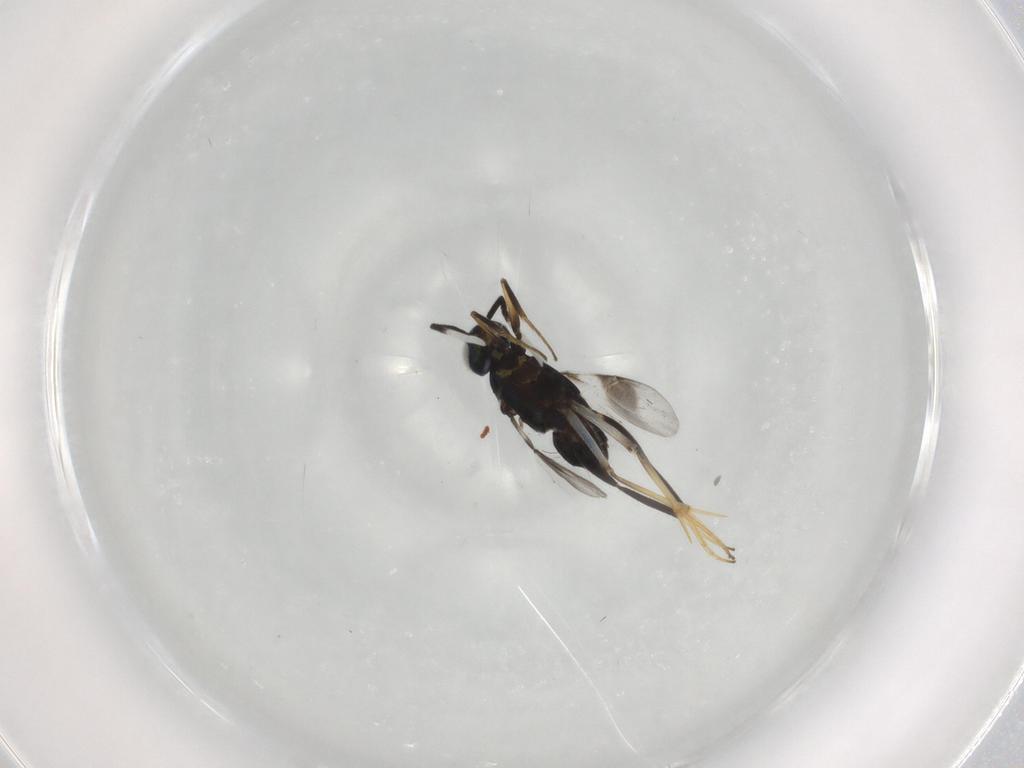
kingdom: Animalia
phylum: Arthropoda
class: Insecta
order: Hymenoptera
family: Encyrtidae
